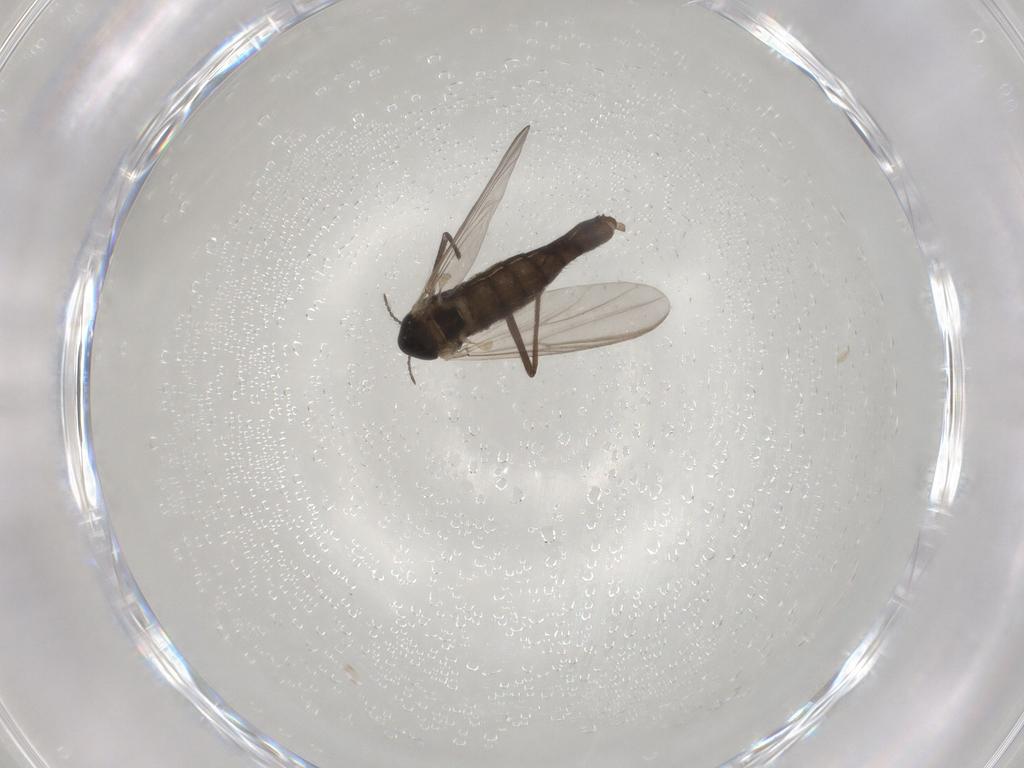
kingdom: Animalia
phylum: Arthropoda
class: Insecta
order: Diptera
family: Chironomidae
